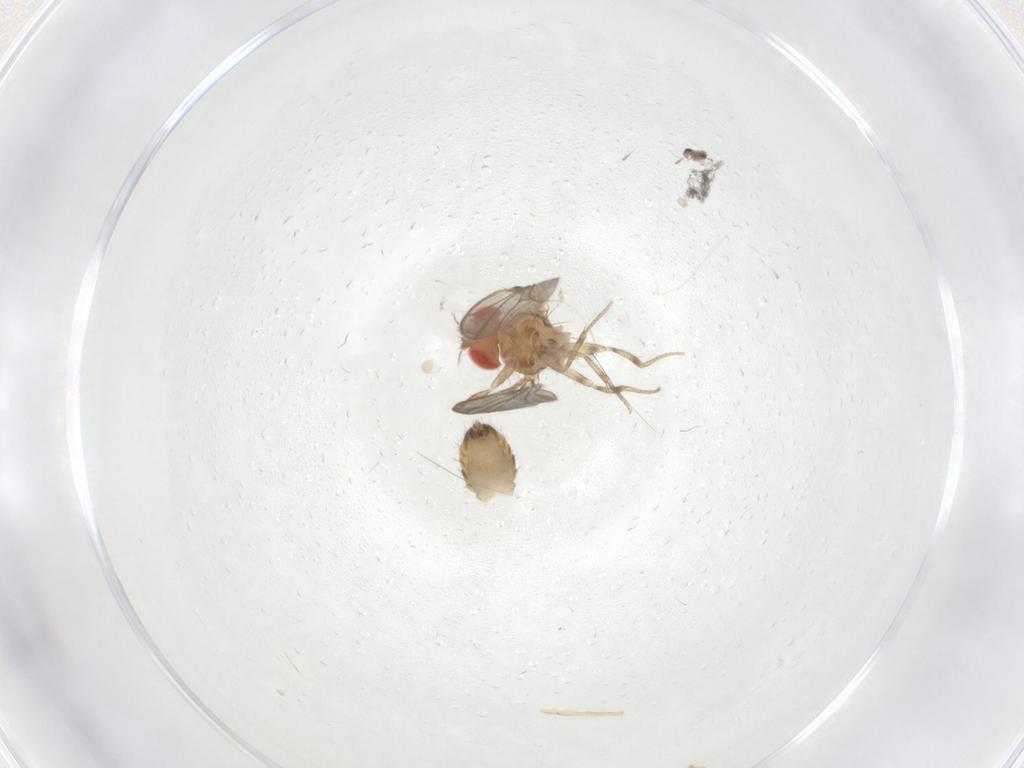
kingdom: Animalia
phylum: Arthropoda
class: Insecta
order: Diptera
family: Drosophilidae
